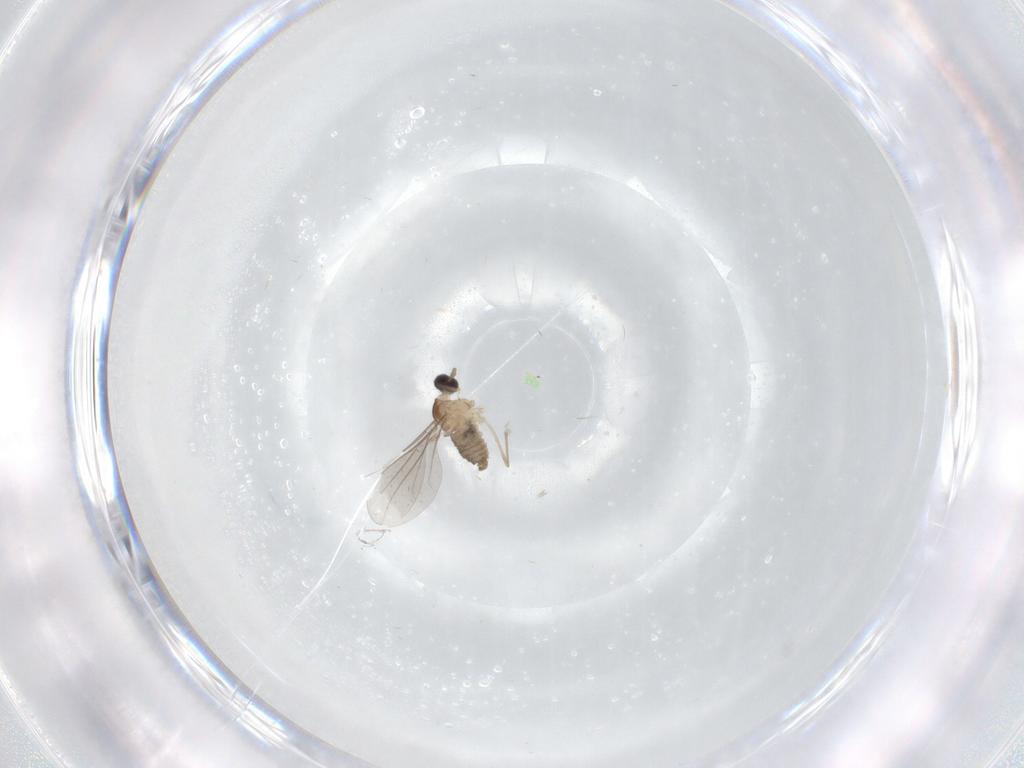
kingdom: Animalia
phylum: Arthropoda
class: Insecta
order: Diptera
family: Cecidomyiidae
